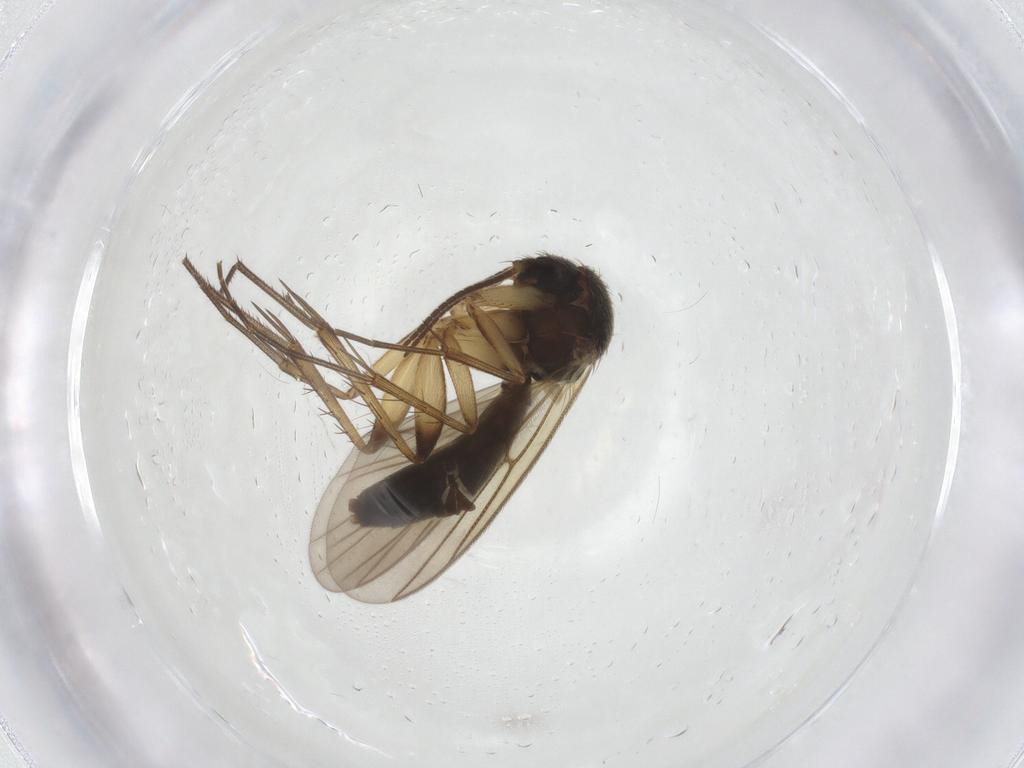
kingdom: Animalia
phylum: Arthropoda
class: Insecta
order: Diptera
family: Mycetophilidae
